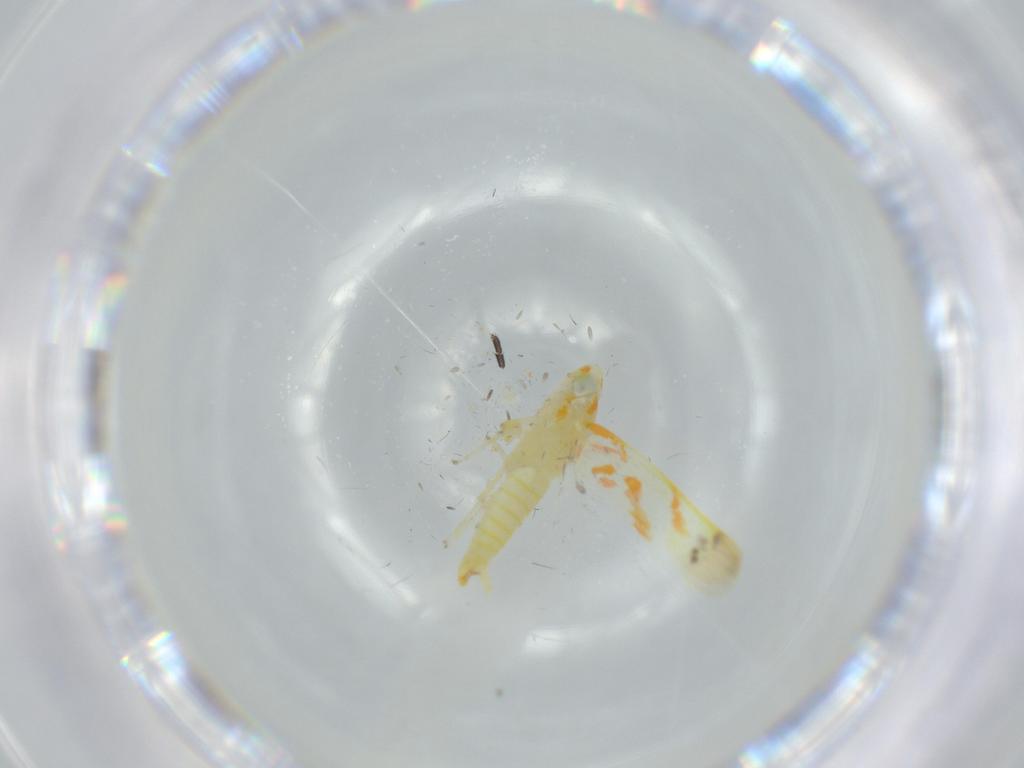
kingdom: Animalia
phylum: Arthropoda
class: Insecta
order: Hemiptera
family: Cicadellidae
